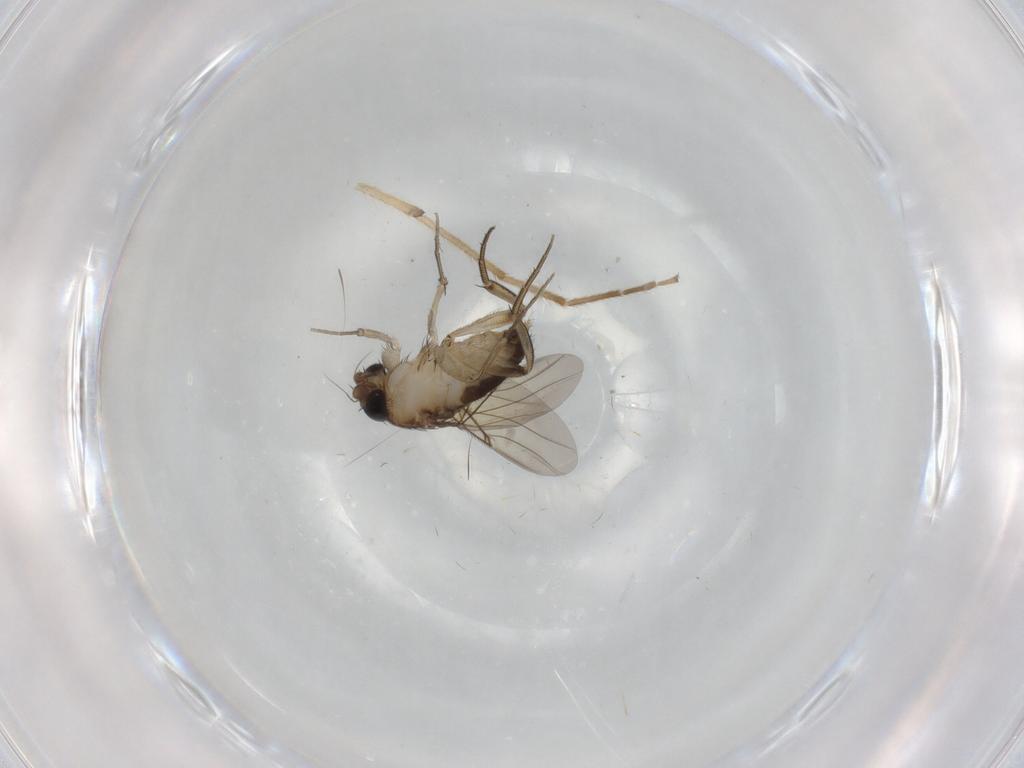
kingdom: Animalia
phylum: Arthropoda
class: Insecta
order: Diptera
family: Phoridae
